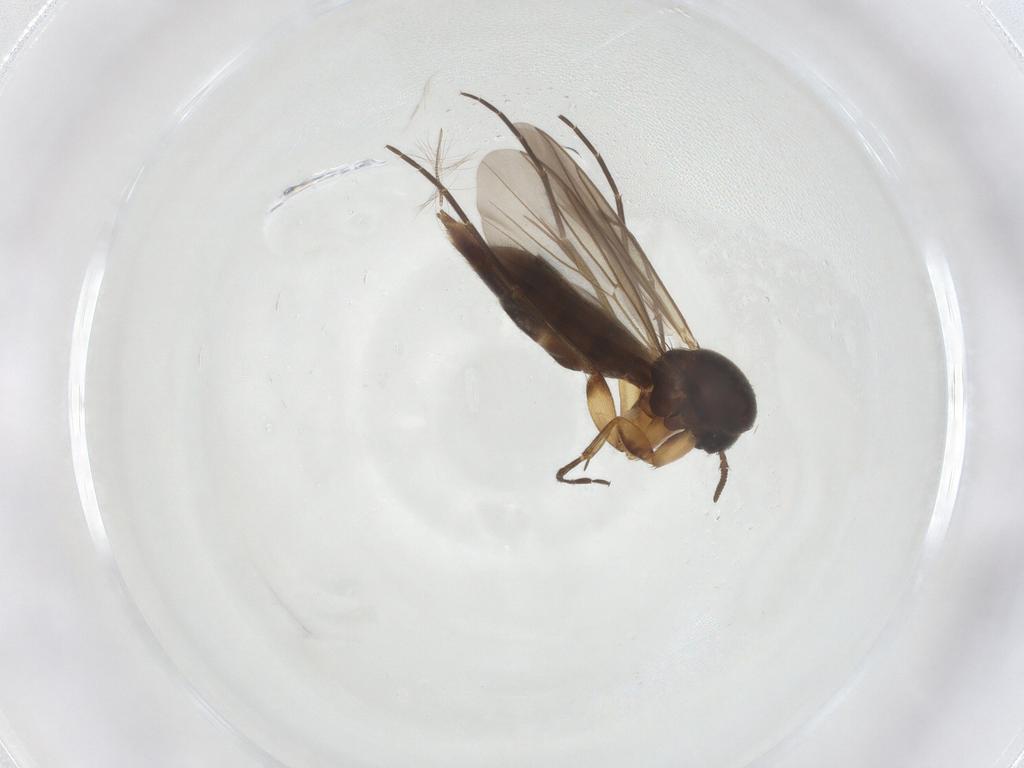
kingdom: Animalia
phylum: Arthropoda
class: Insecta
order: Diptera
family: Mycetophilidae
